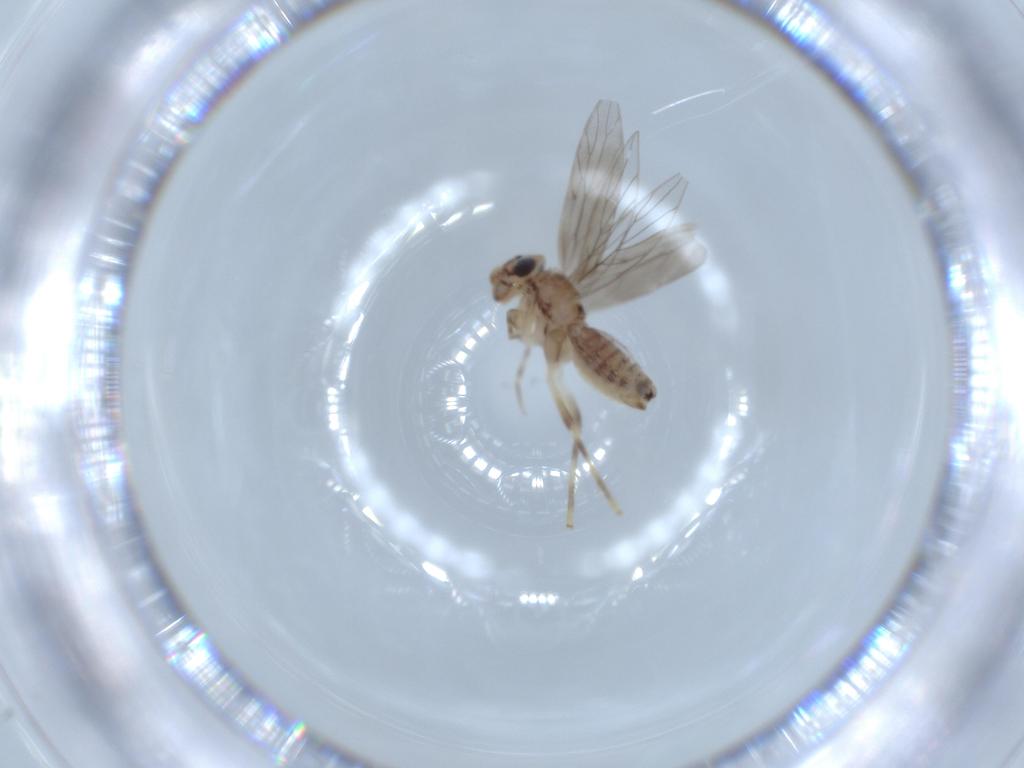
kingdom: Animalia
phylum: Arthropoda
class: Insecta
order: Psocodea
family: Lepidopsocidae
